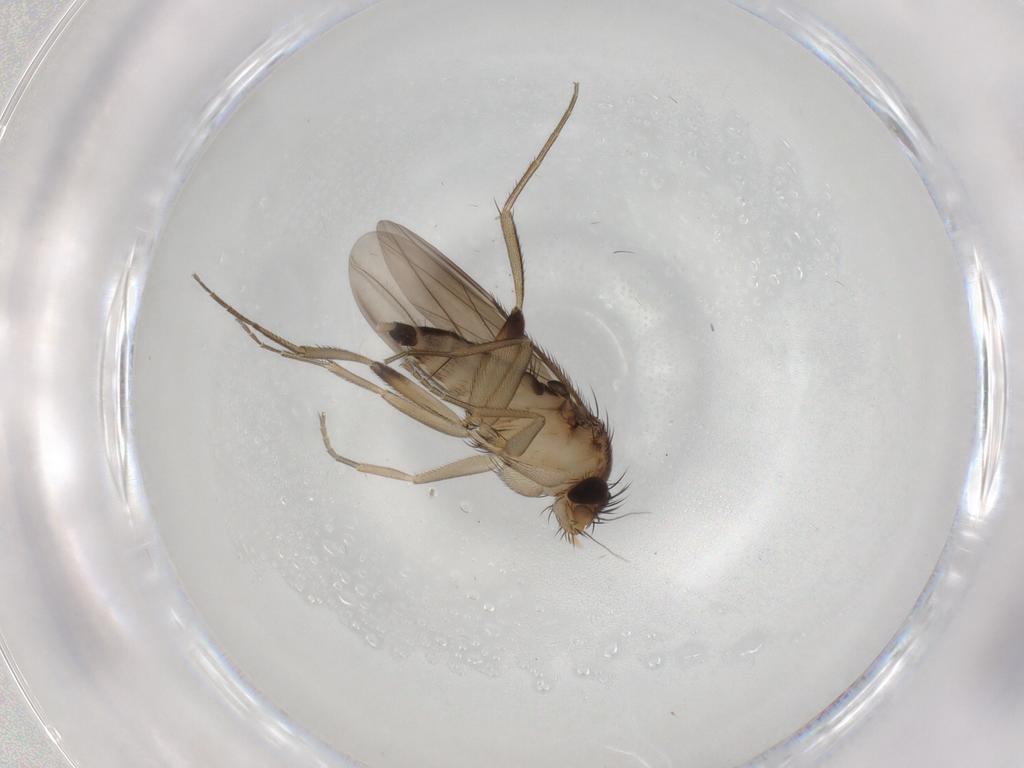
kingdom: Animalia
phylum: Arthropoda
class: Insecta
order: Diptera
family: Phoridae
